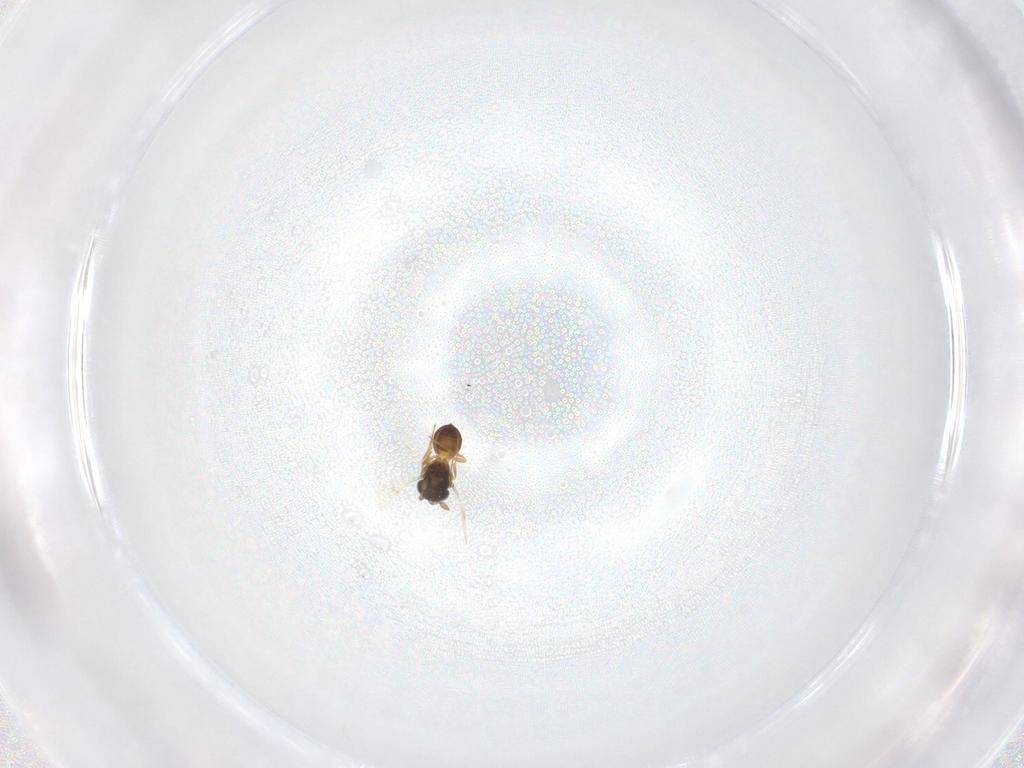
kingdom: Animalia
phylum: Arthropoda
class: Insecta
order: Hymenoptera
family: Scelionidae
